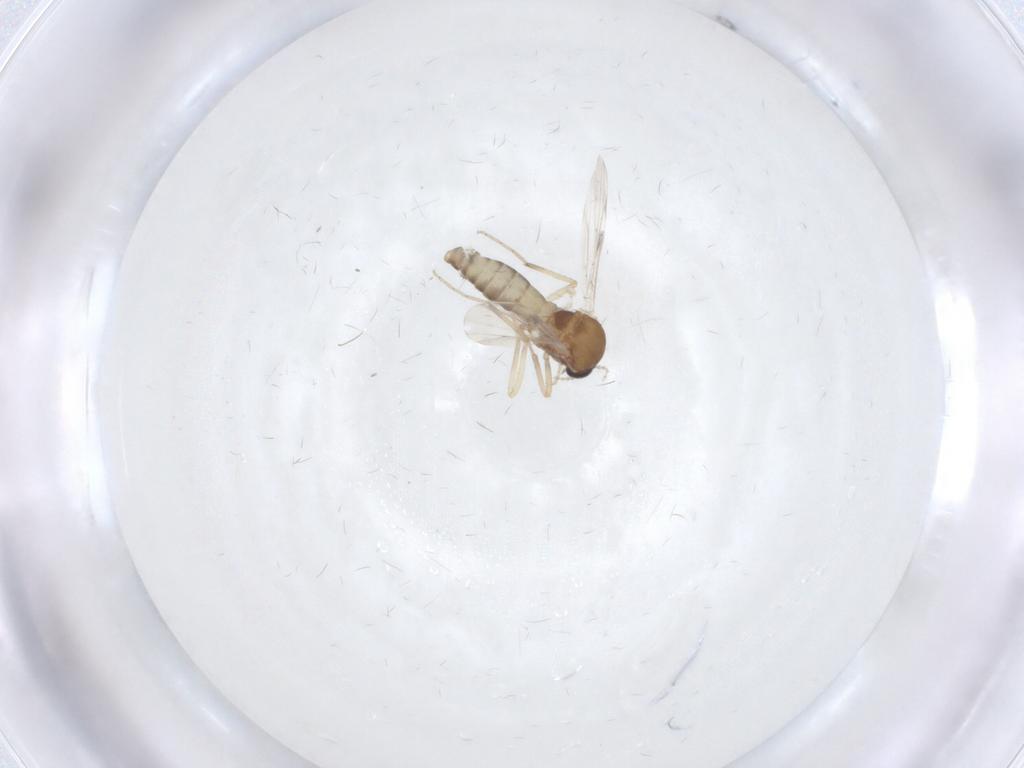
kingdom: Animalia
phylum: Arthropoda
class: Insecta
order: Diptera
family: Ceratopogonidae
